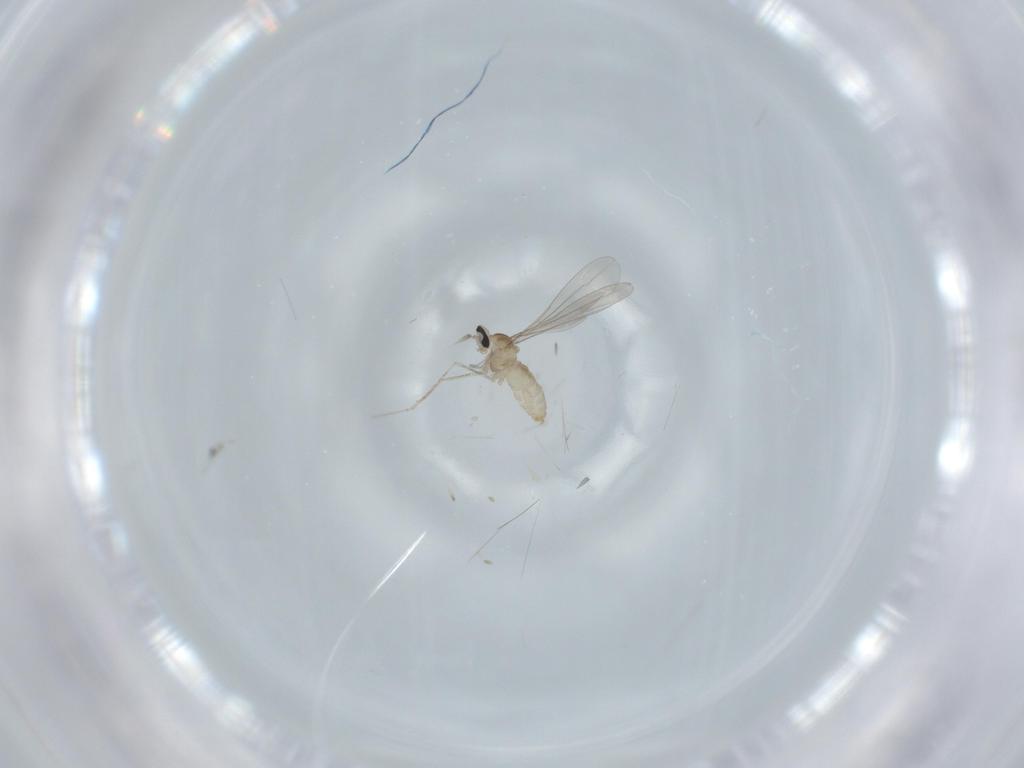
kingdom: Animalia
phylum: Arthropoda
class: Insecta
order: Diptera
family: Cecidomyiidae
